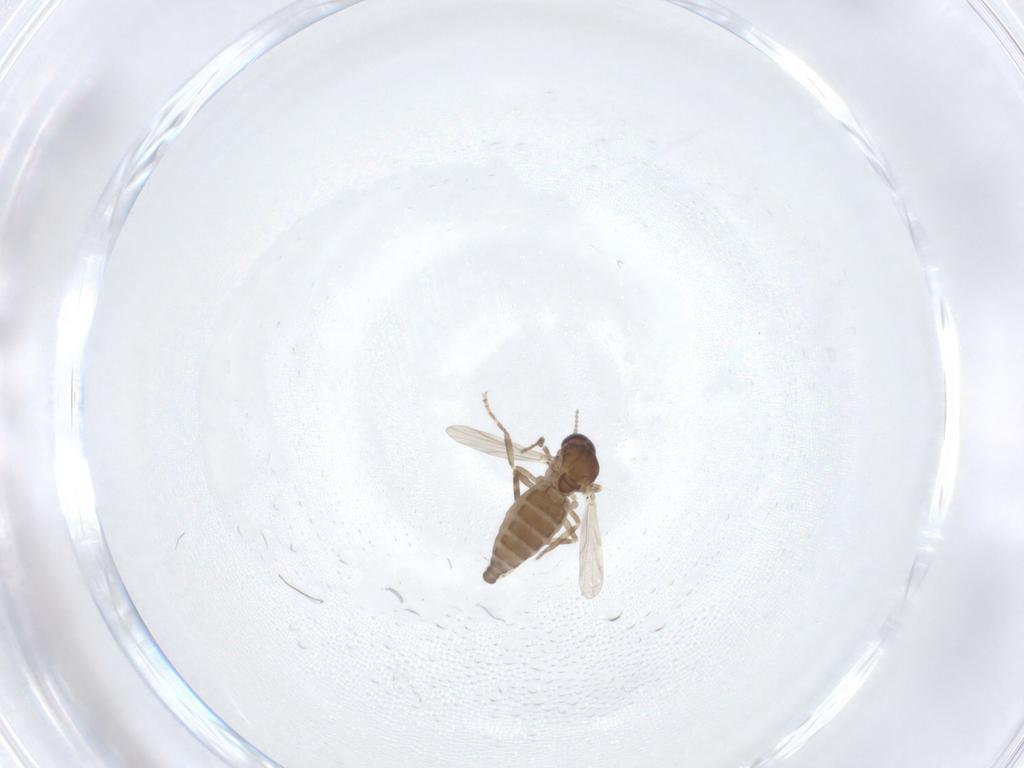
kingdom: Animalia
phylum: Arthropoda
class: Insecta
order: Diptera
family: Ceratopogonidae
